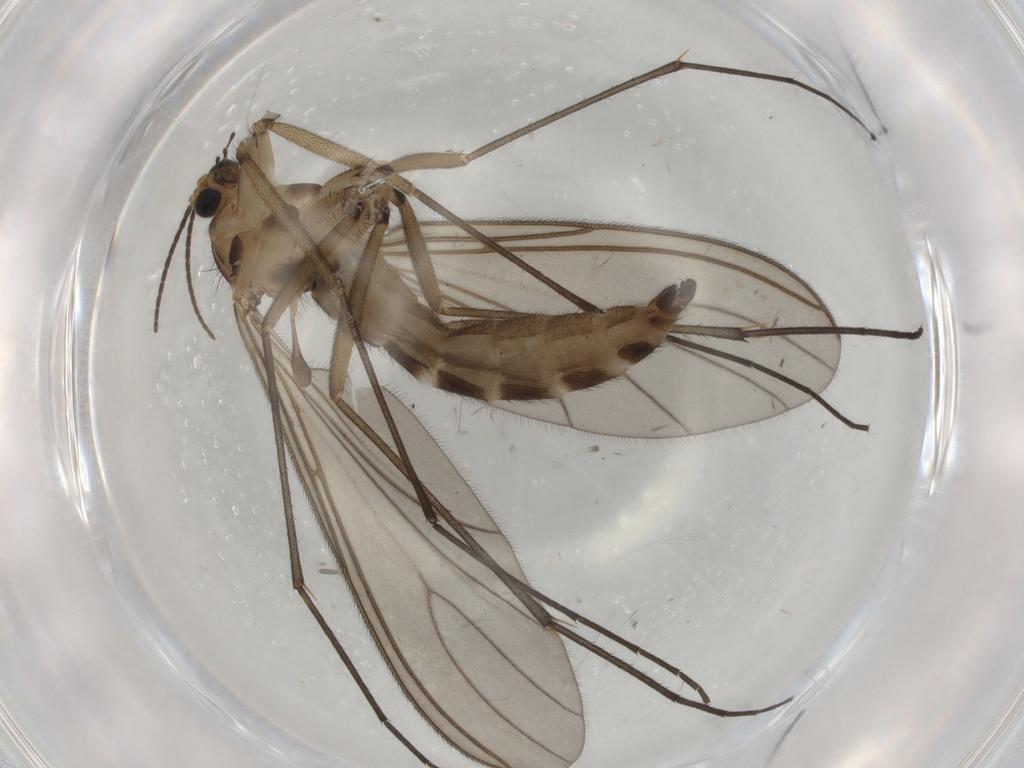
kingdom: Animalia
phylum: Arthropoda
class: Insecta
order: Diptera
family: Sciaridae
